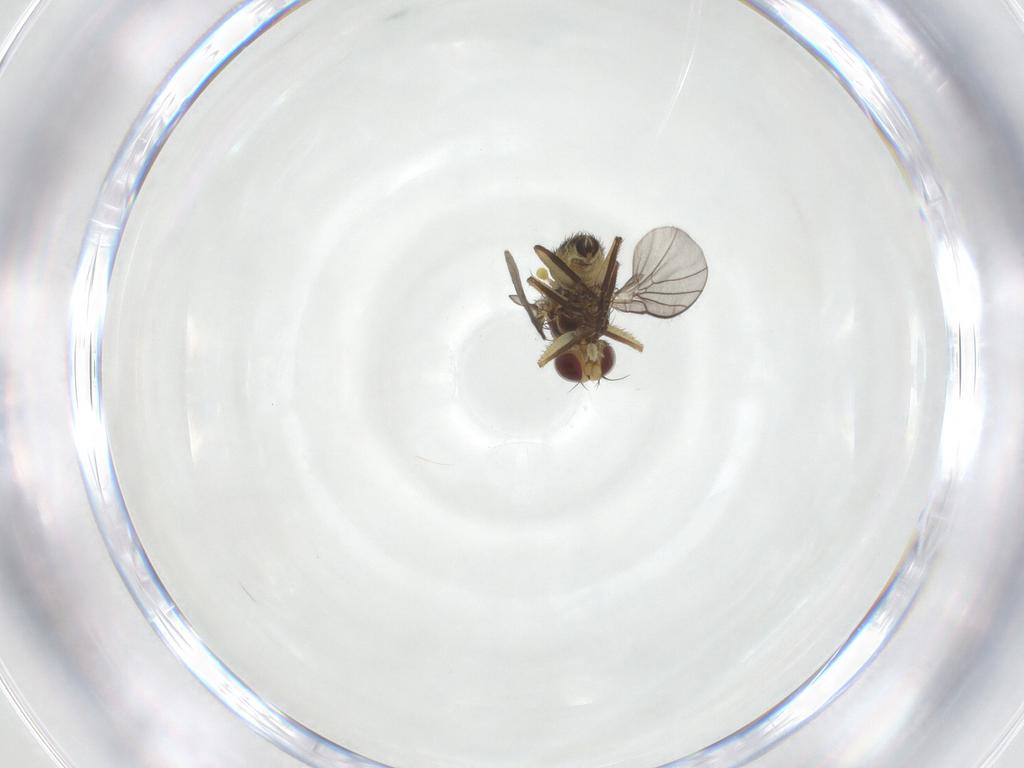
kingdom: Animalia
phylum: Arthropoda
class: Insecta
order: Diptera
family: Agromyzidae
